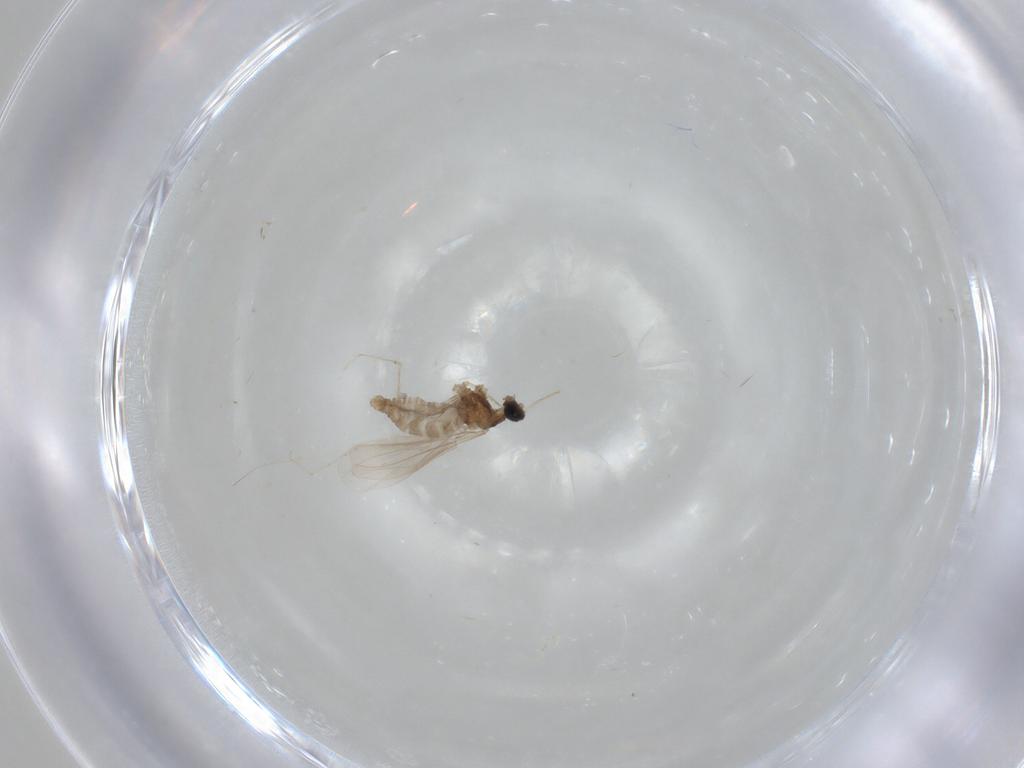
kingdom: Animalia
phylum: Arthropoda
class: Insecta
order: Diptera
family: Cecidomyiidae
